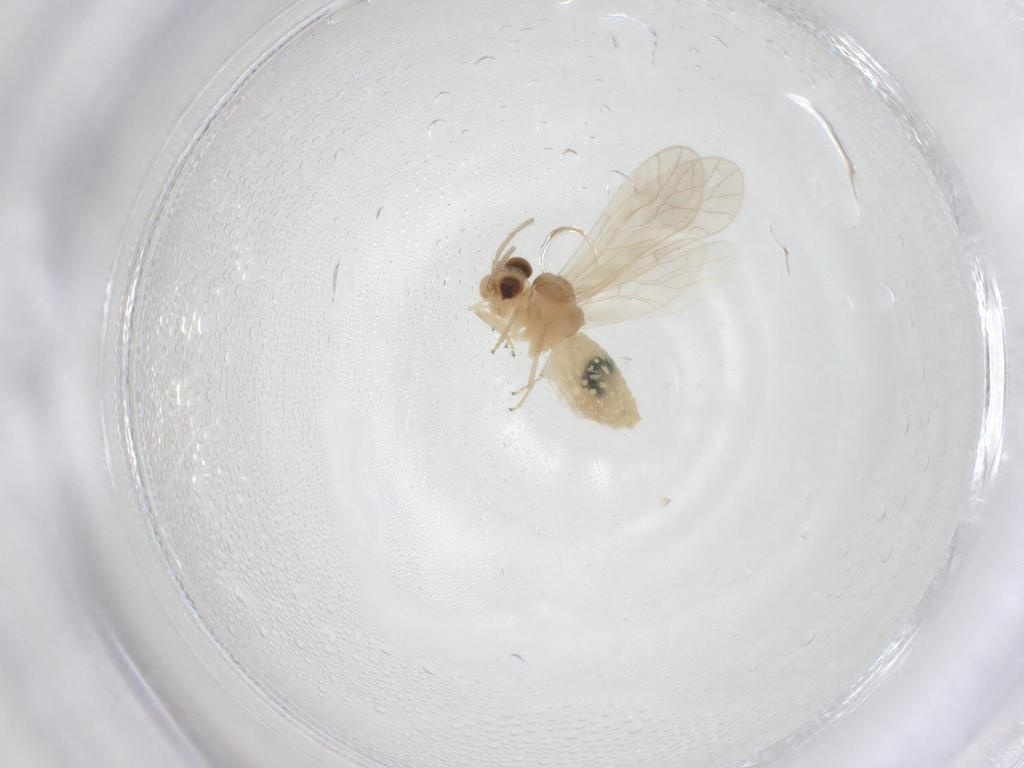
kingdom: Animalia
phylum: Arthropoda
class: Insecta
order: Psocodea
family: Caeciliusidae
